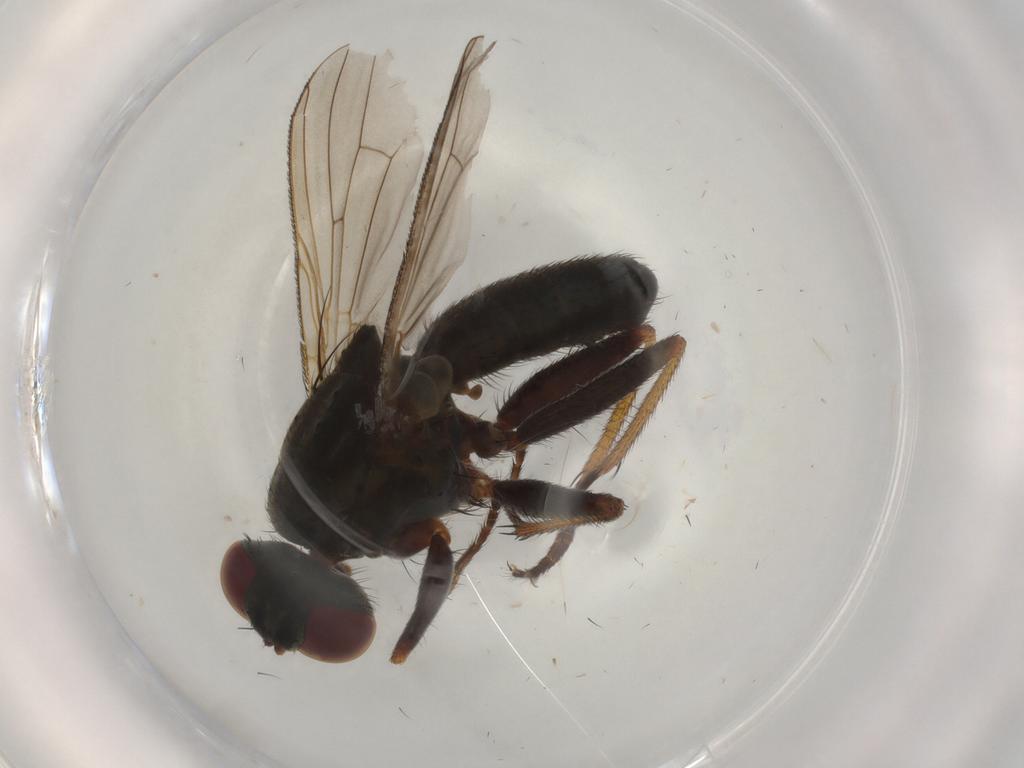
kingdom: Animalia
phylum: Arthropoda
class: Insecta
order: Diptera
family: Muscidae
